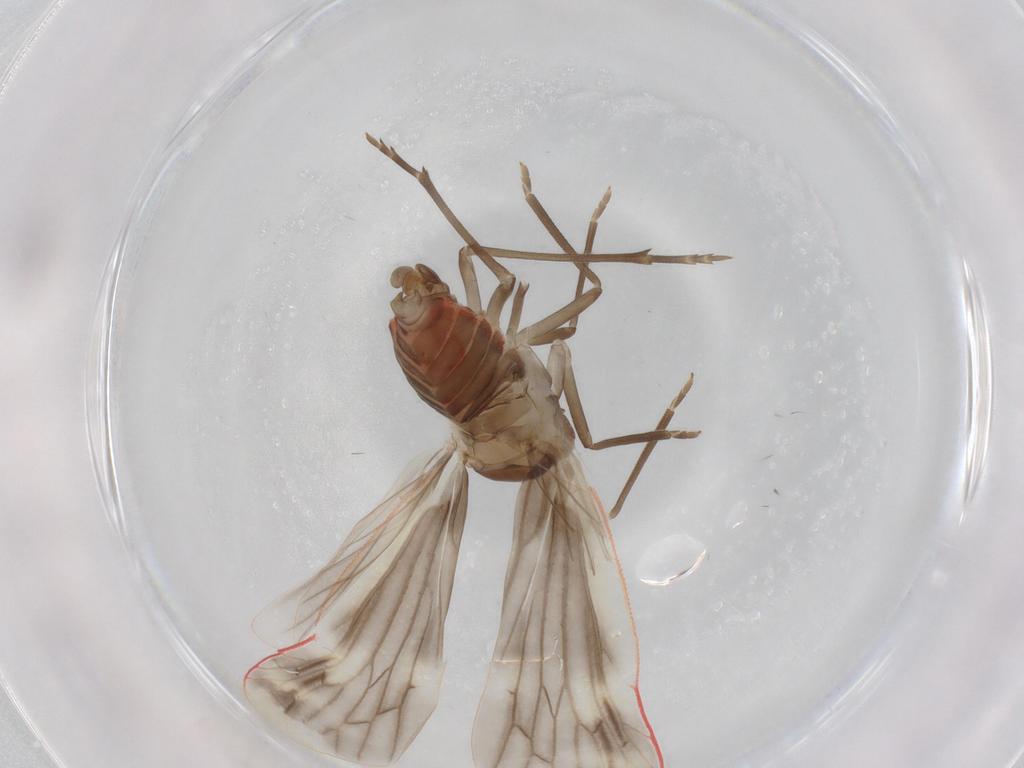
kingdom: Animalia
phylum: Arthropoda
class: Insecta
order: Hemiptera
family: Derbidae
